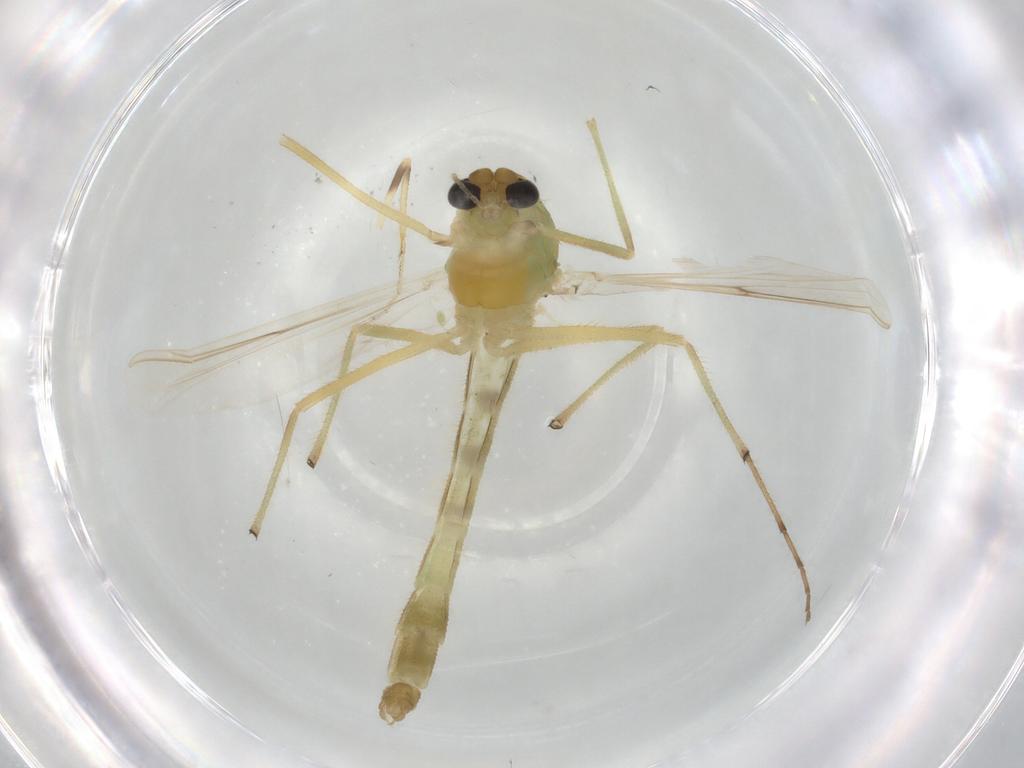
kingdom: Animalia
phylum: Arthropoda
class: Insecta
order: Diptera
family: Chironomidae
